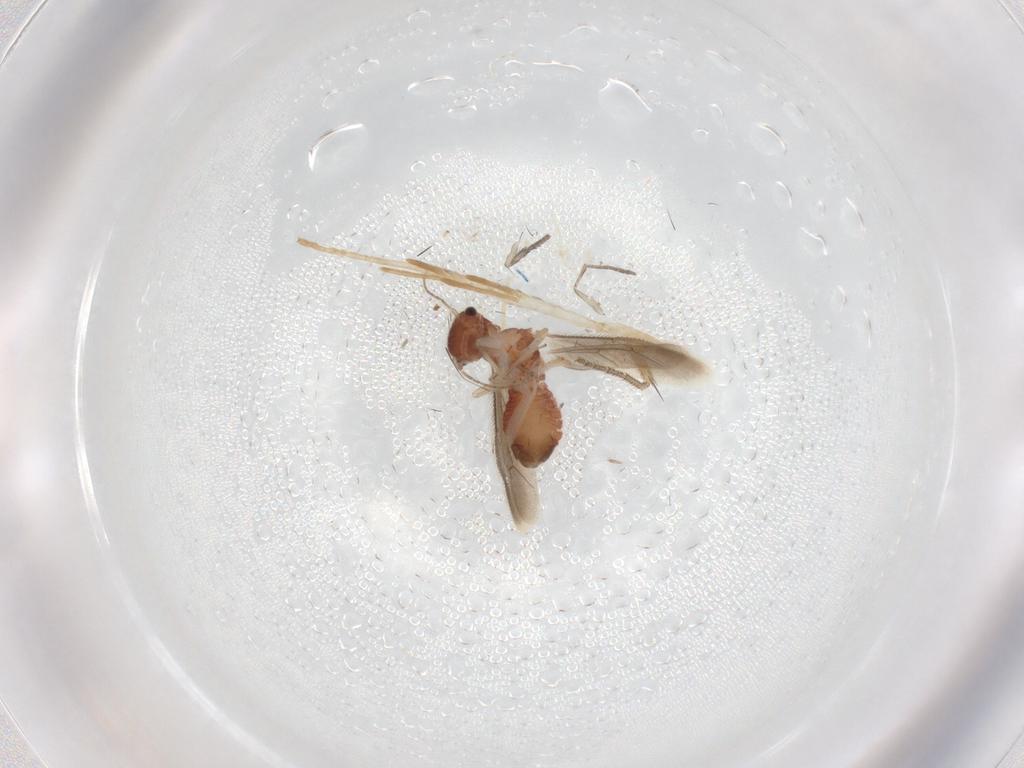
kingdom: Animalia
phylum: Arthropoda
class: Insecta
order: Psocodea
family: Archipsocidae
